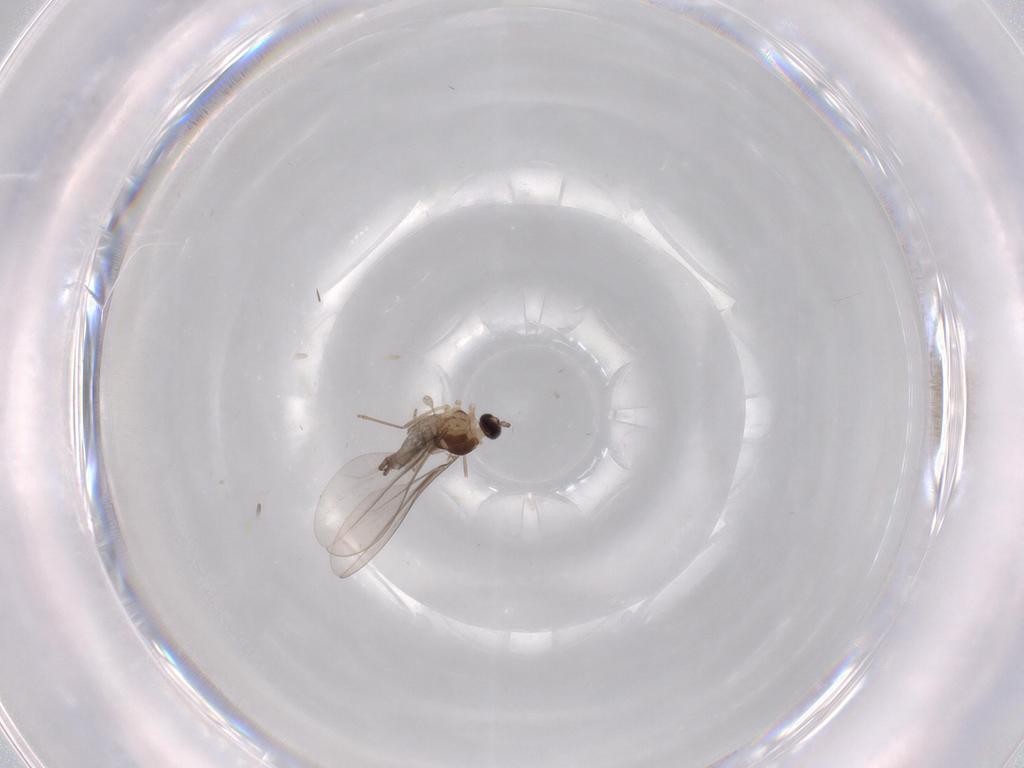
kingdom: Animalia
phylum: Arthropoda
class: Insecta
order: Diptera
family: Cecidomyiidae
